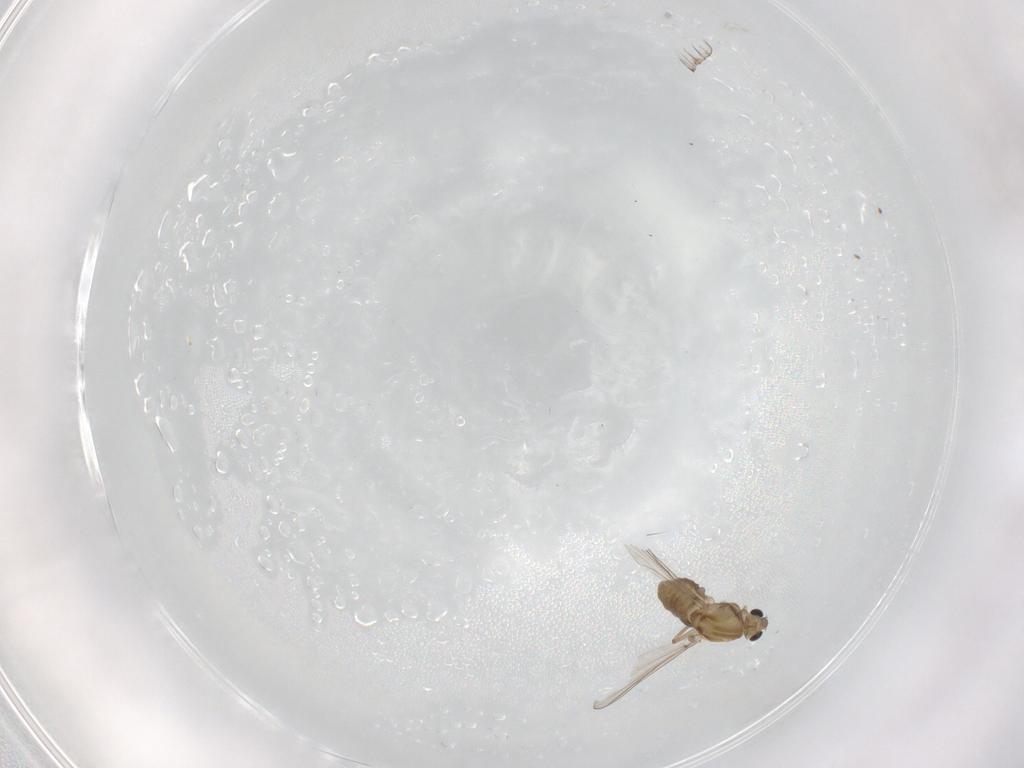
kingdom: Animalia
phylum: Arthropoda
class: Insecta
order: Diptera
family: Chironomidae
